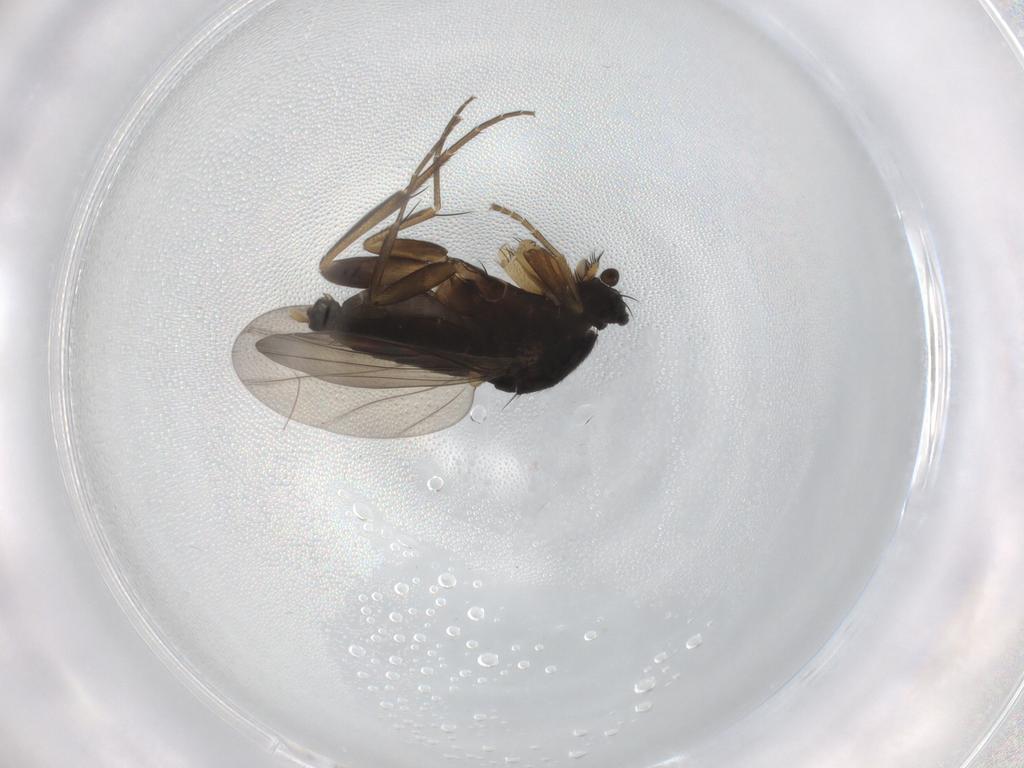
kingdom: Animalia
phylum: Arthropoda
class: Insecta
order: Diptera
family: Phoridae
